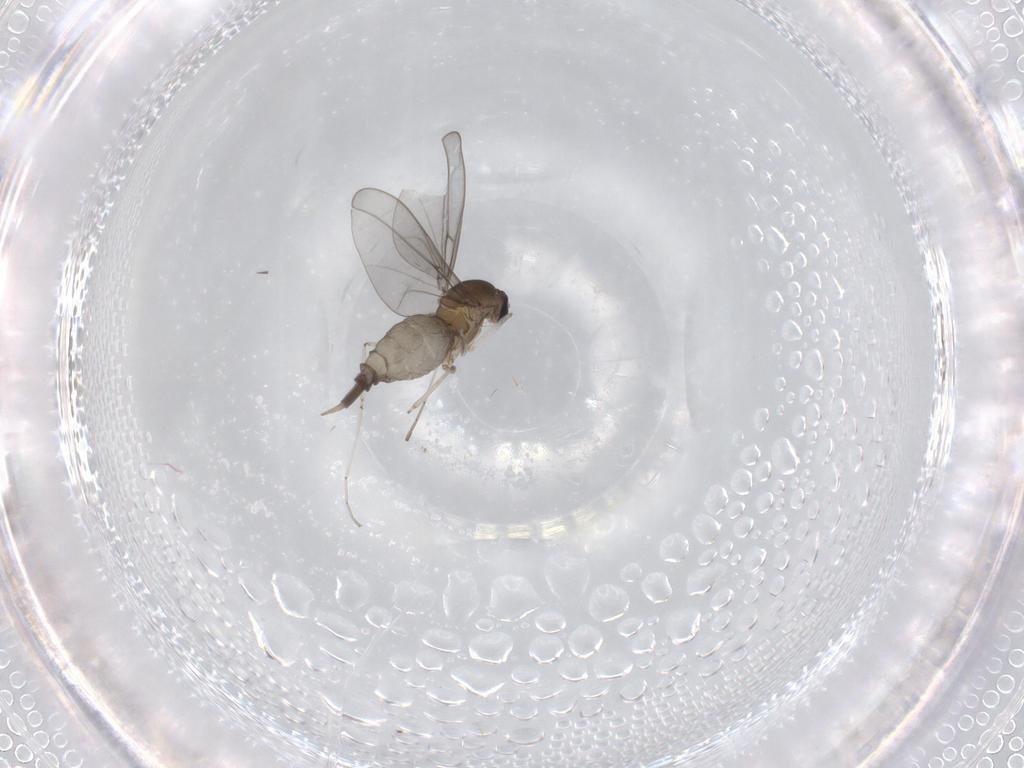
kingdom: Animalia
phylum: Arthropoda
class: Insecta
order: Diptera
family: Cecidomyiidae
